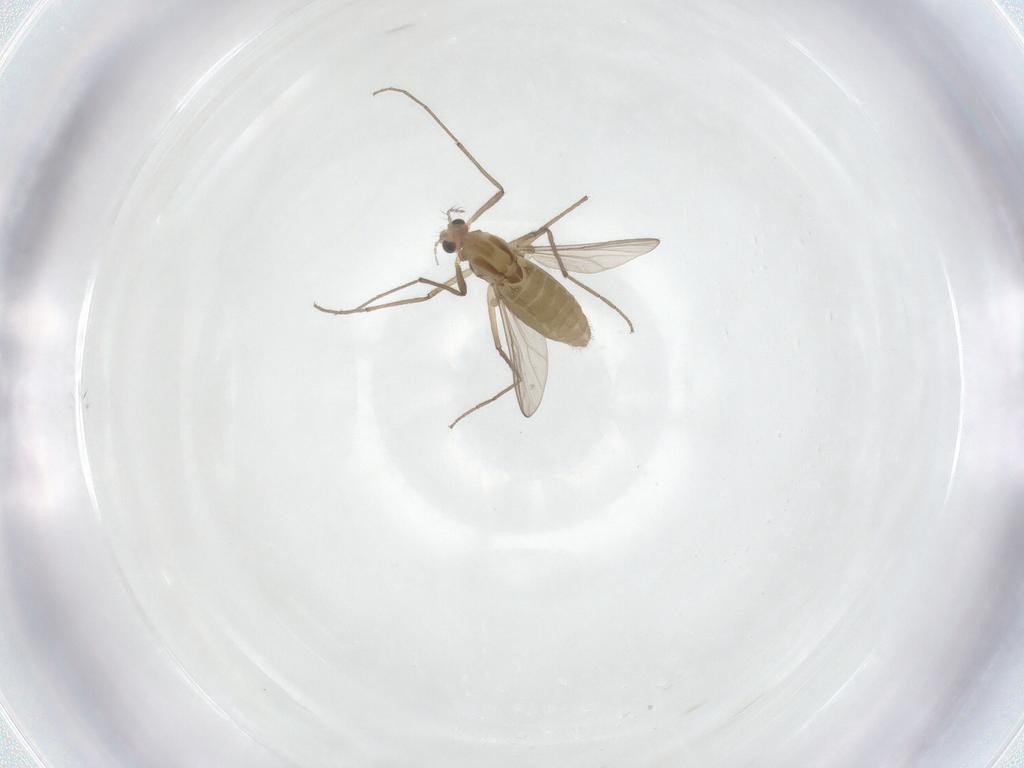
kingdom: Animalia
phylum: Arthropoda
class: Insecta
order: Diptera
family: Chironomidae
